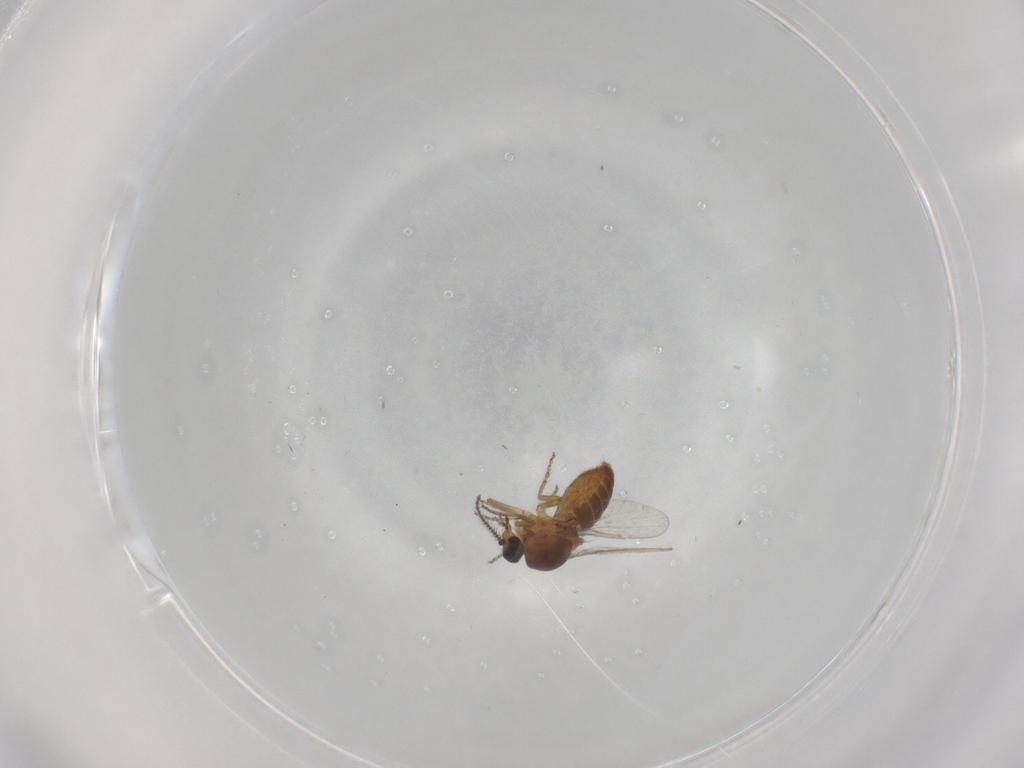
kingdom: Animalia
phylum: Arthropoda
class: Insecta
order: Diptera
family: Ceratopogonidae
